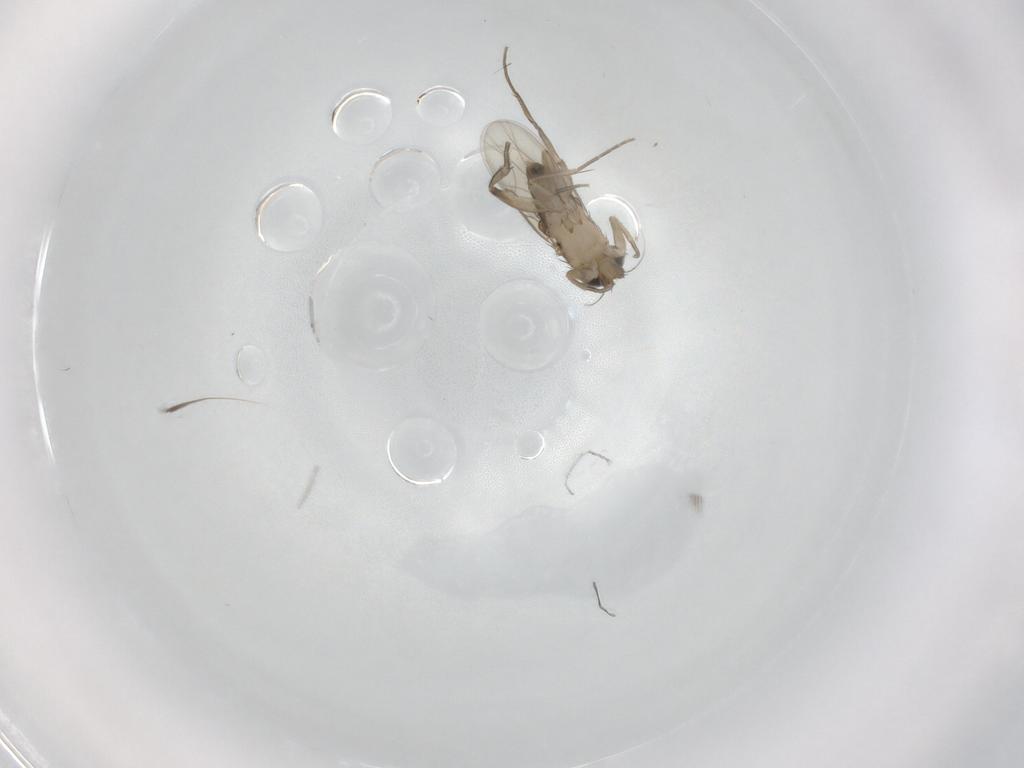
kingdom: Animalia
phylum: Arthropoda
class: Insecta
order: Diptera
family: Phoridae
